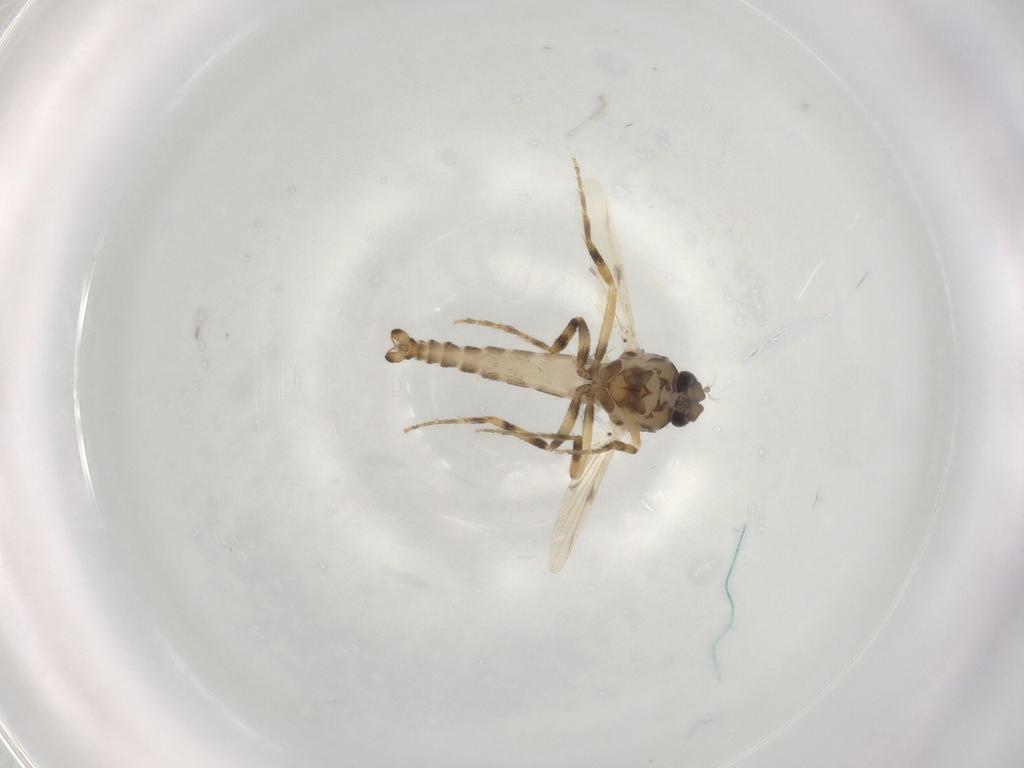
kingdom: Animalia
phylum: Arthropoda
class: Insecta
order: Diptera
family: Ceratopogonidae
